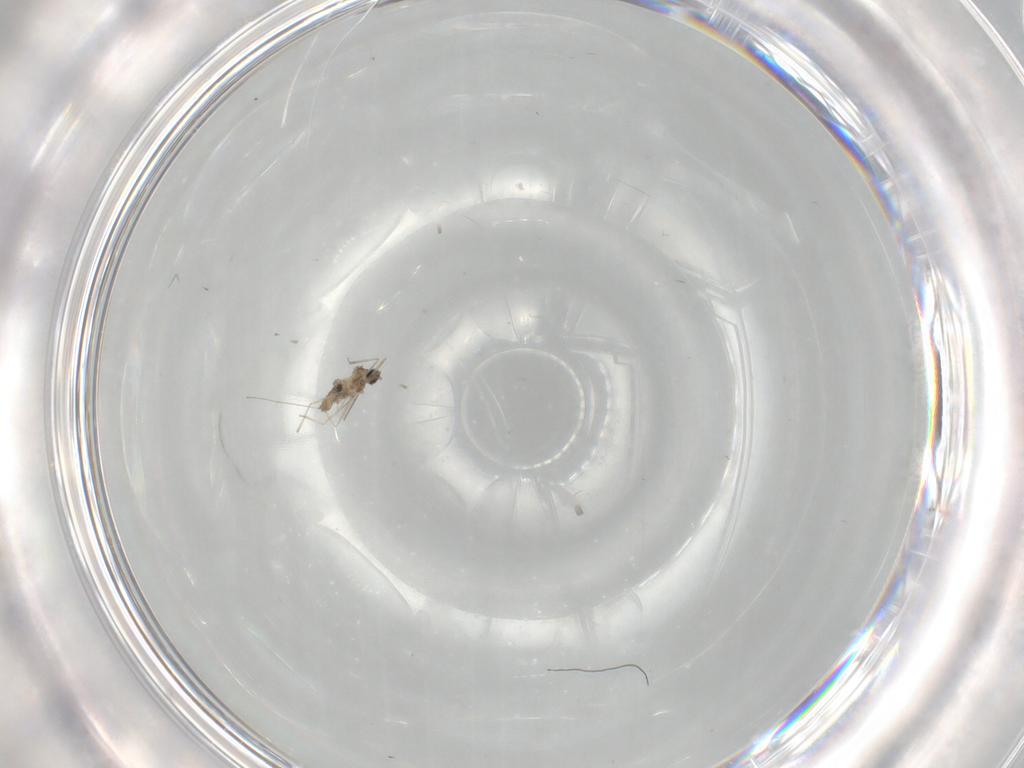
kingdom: Animalia
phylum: Arthropoda
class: Insecta
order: Diptera
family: Cecidomyiidae
